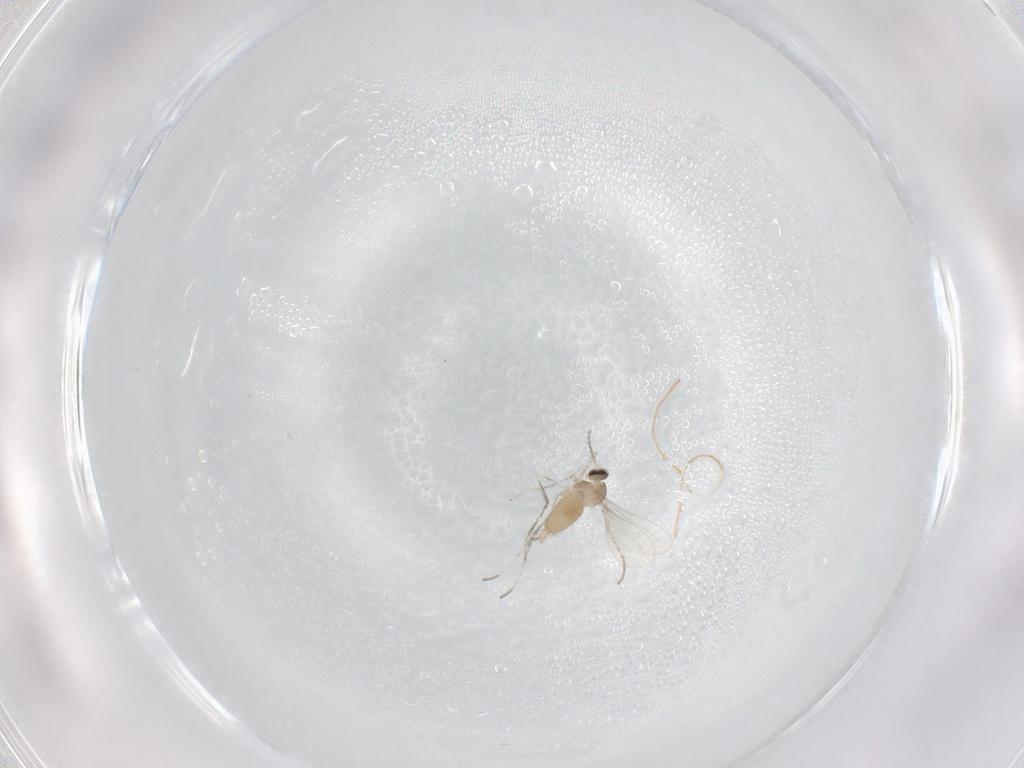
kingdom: Animalia
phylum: Arthropoda
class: Insecta
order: Diptera
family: Cecidomyiidae
